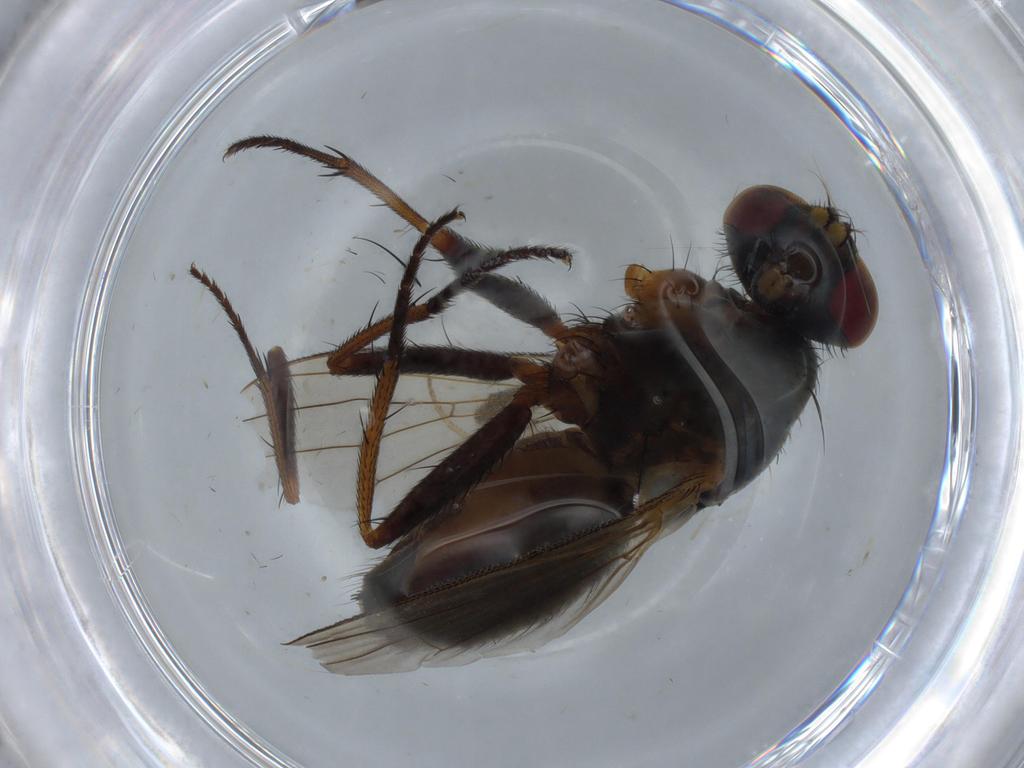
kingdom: Animalia
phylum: Arthropoda
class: Insecta
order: Diptera
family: Muscidae
